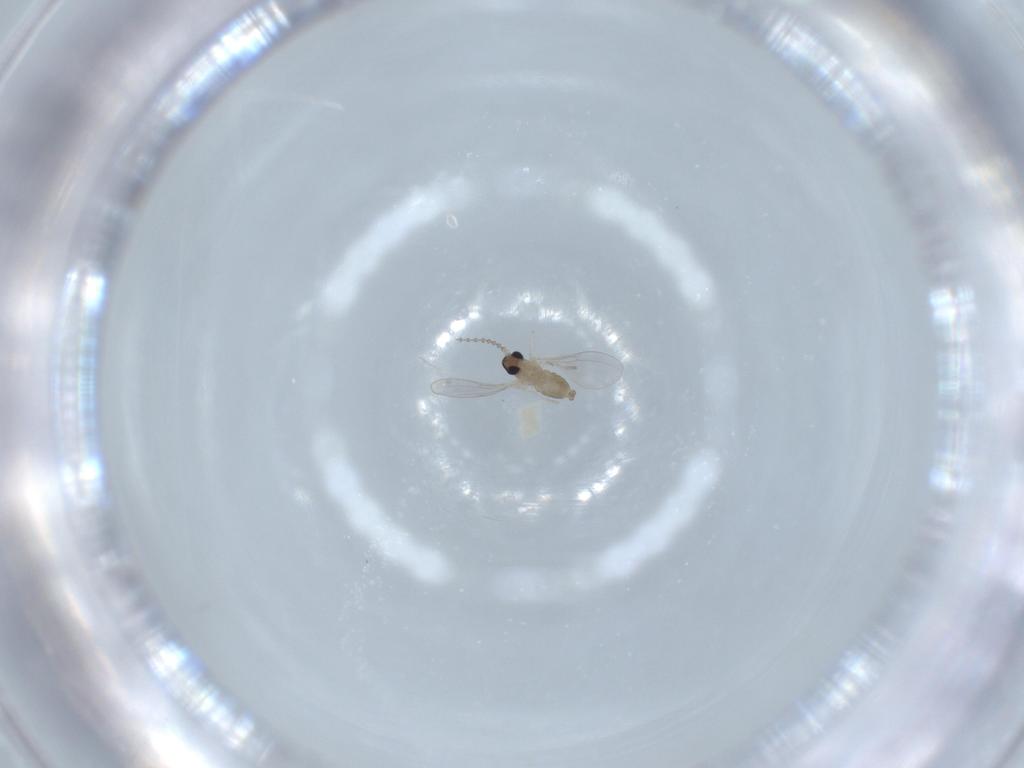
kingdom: Animalia
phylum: Arthropoda
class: Insecta
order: Diptera
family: Cecidomyiidae
